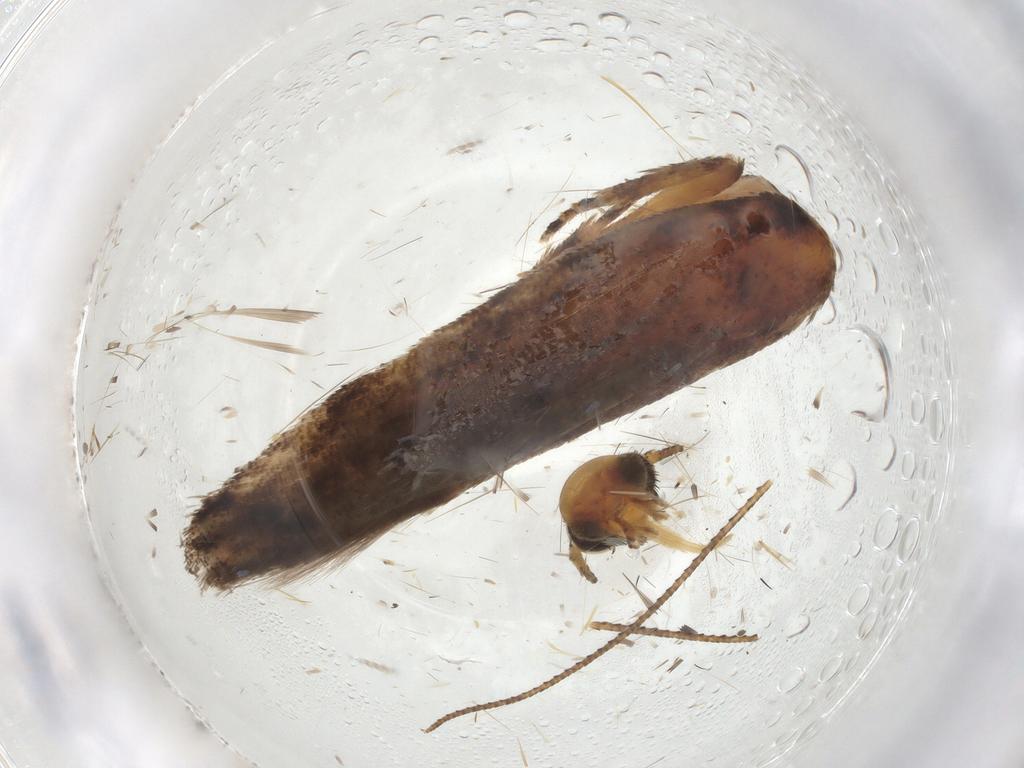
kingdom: Animalia
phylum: Arthropoda
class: Insecta
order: Lepidoptera
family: Gelechiidae
